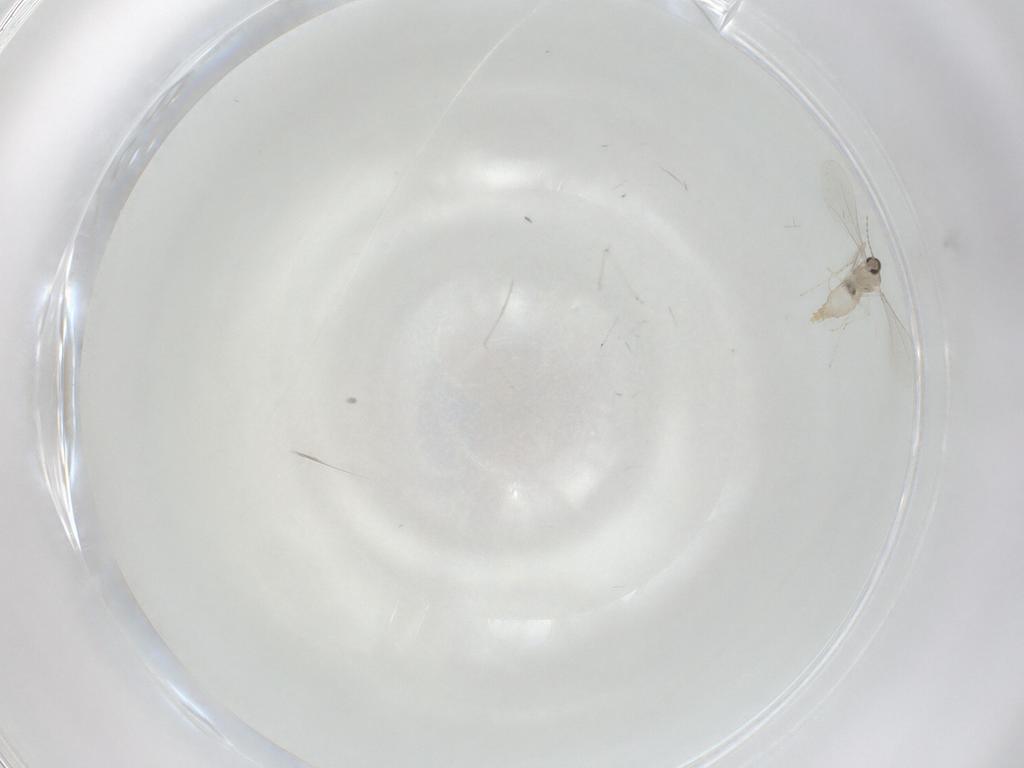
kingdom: Animalia
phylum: Arthropoda
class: Insecta
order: Diptera
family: Cecidomyiidae
